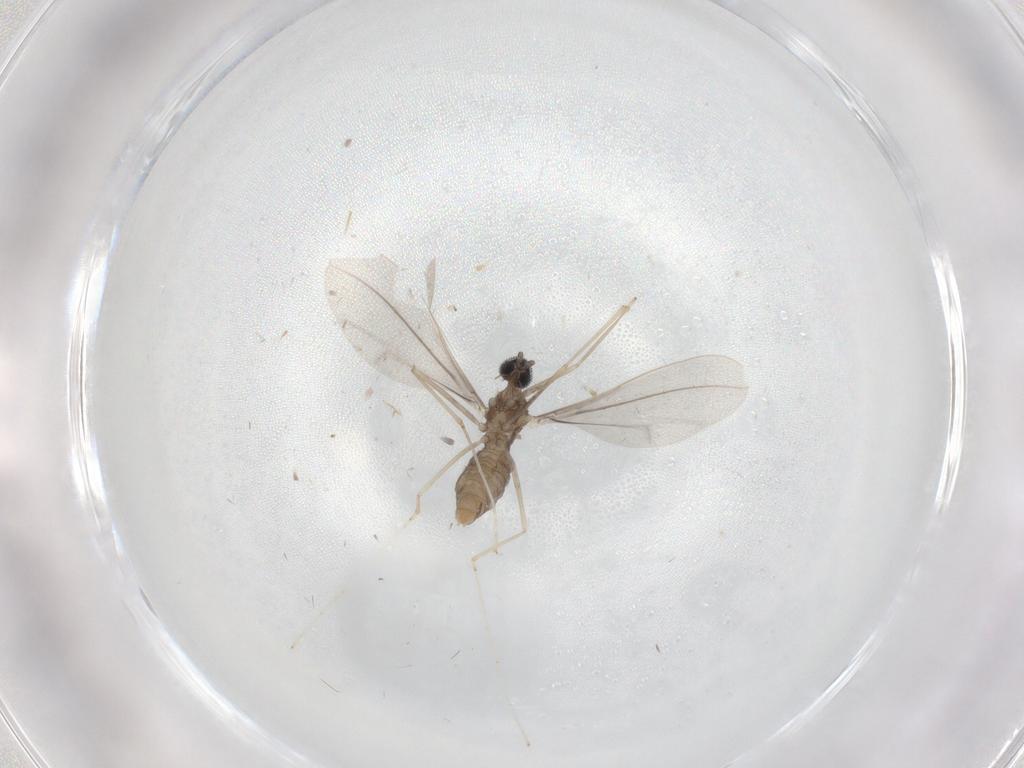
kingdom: Animalia
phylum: Arthropoda
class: Insecta
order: Diptera
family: Cecidomyiidae
